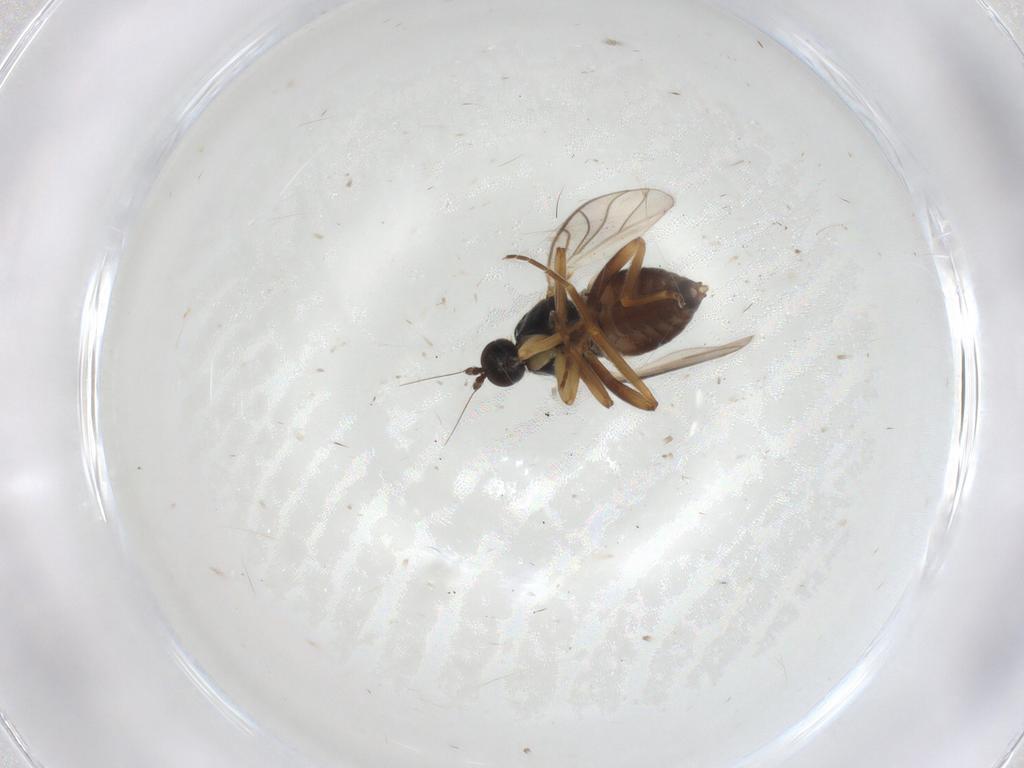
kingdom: Animalia
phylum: Arthropoda
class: Insecta
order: Diptera
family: Hybotidae
